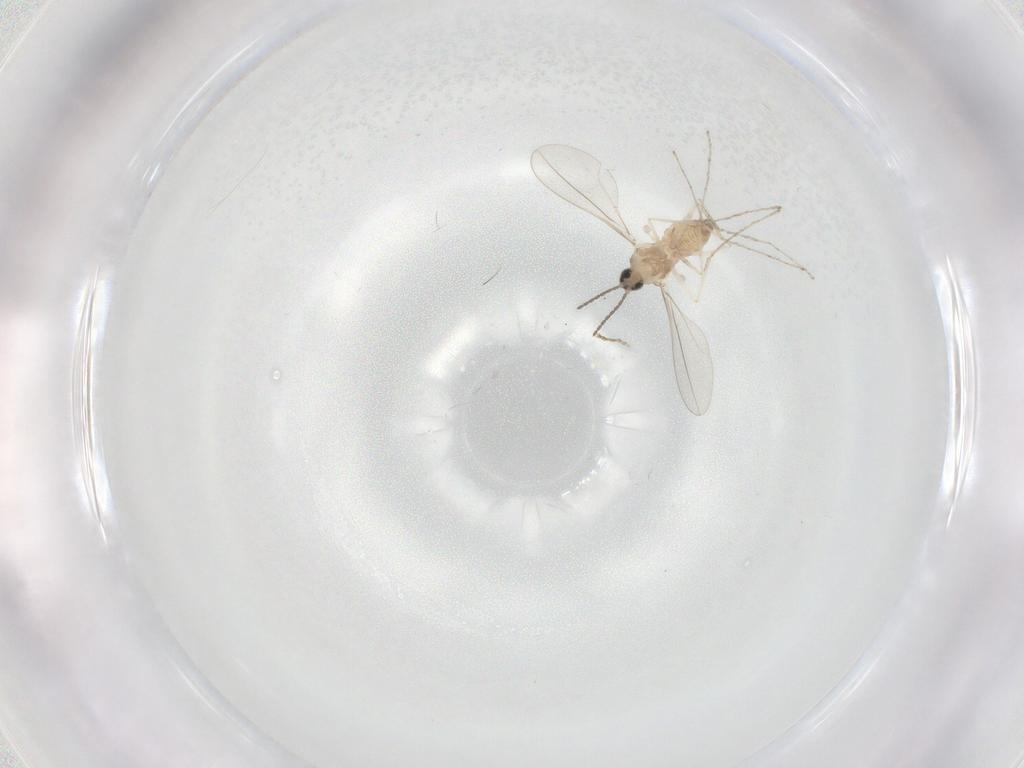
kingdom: Animalia
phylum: Arthropoda
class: Insecta
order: Diptera
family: Cecidomyiidae
